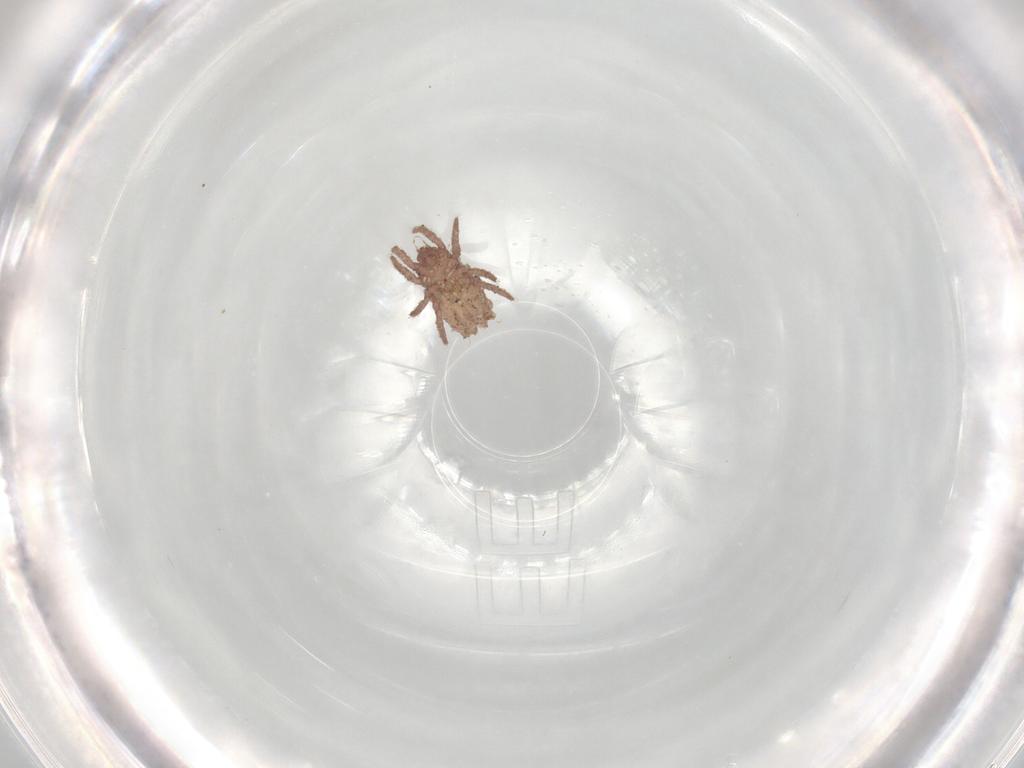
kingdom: Animalia
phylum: Arthropoda
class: Arachnida
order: Sarcoptiformes
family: Crotoniidae
